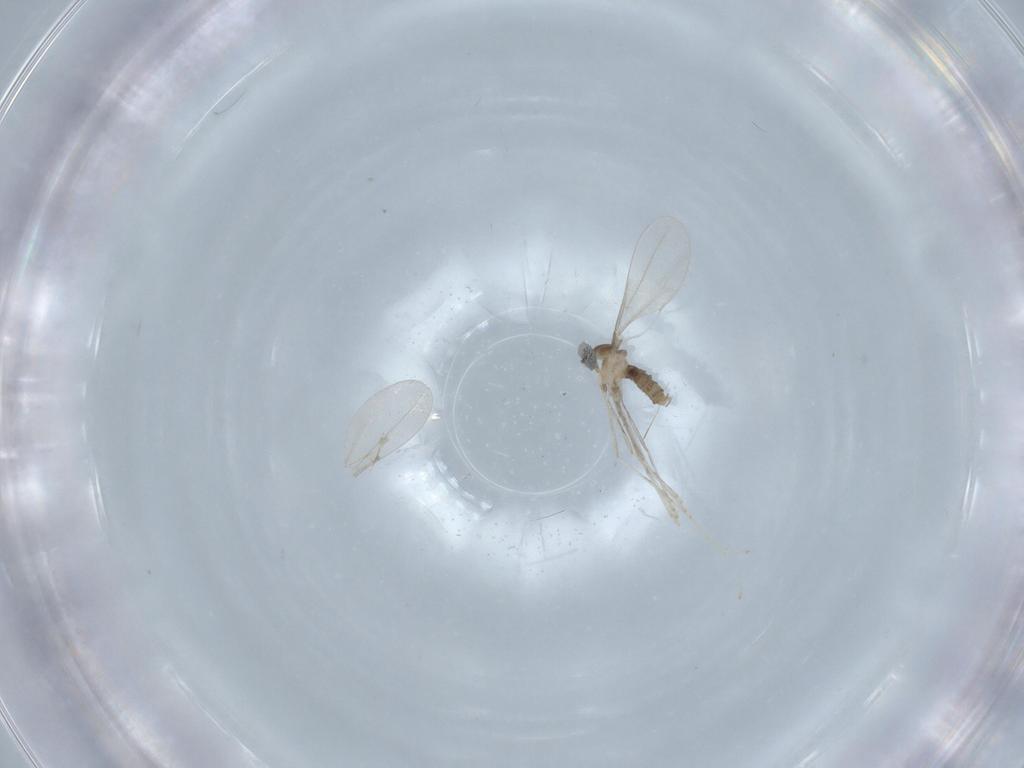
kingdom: Animalia
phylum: Arthropoda
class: Insecta
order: Diptera
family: Cecidomyiidae
